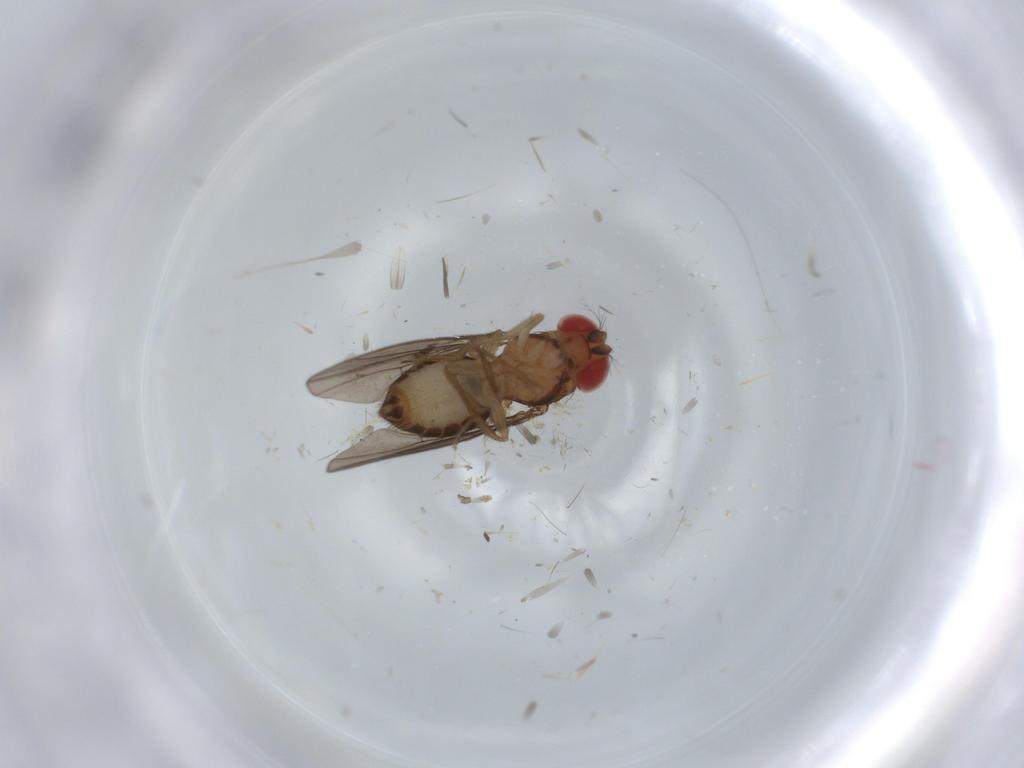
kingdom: Animalia
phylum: Arthropoda
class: Insecta
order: Diptera
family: Drosophilidae
